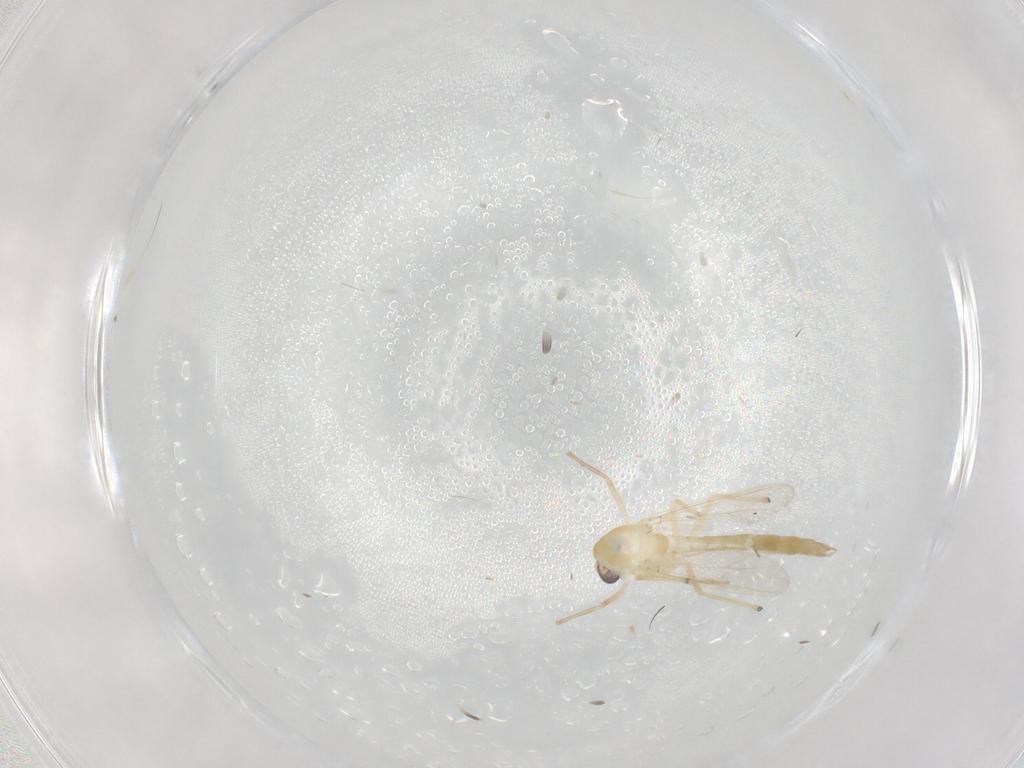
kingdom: Animalia
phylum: Arthropoda
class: Insecta
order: Diptera
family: Chironomidae
